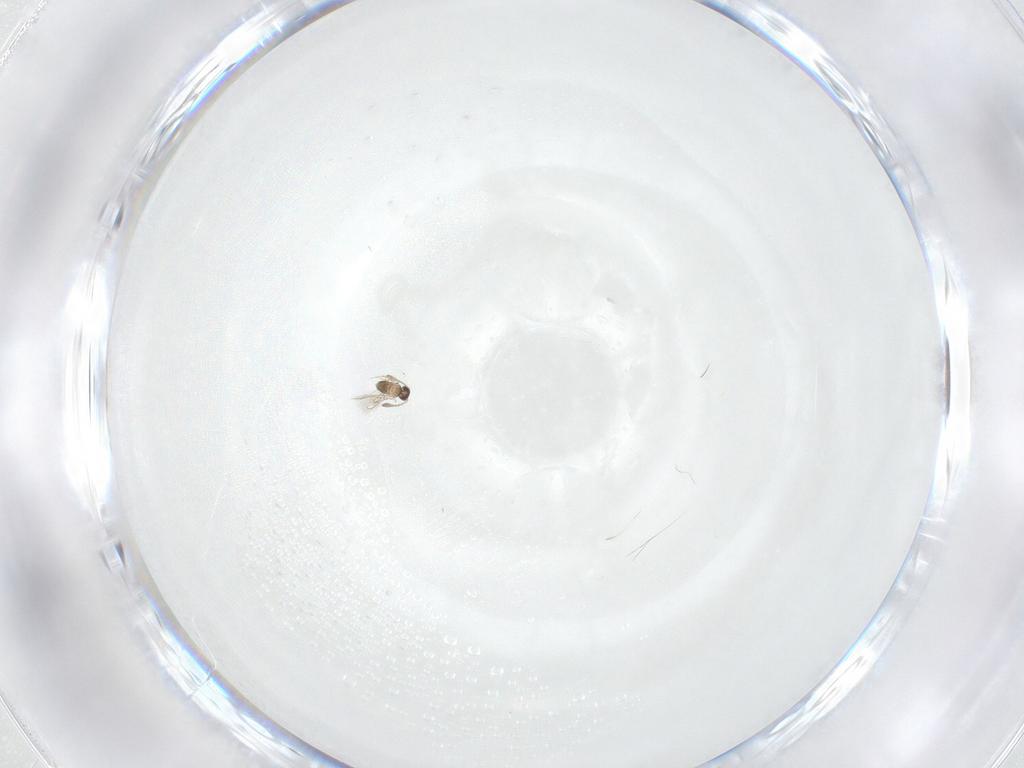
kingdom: Animalia
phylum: Arthropoda
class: Insecta
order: Hymenoptera
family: Mymaridae
